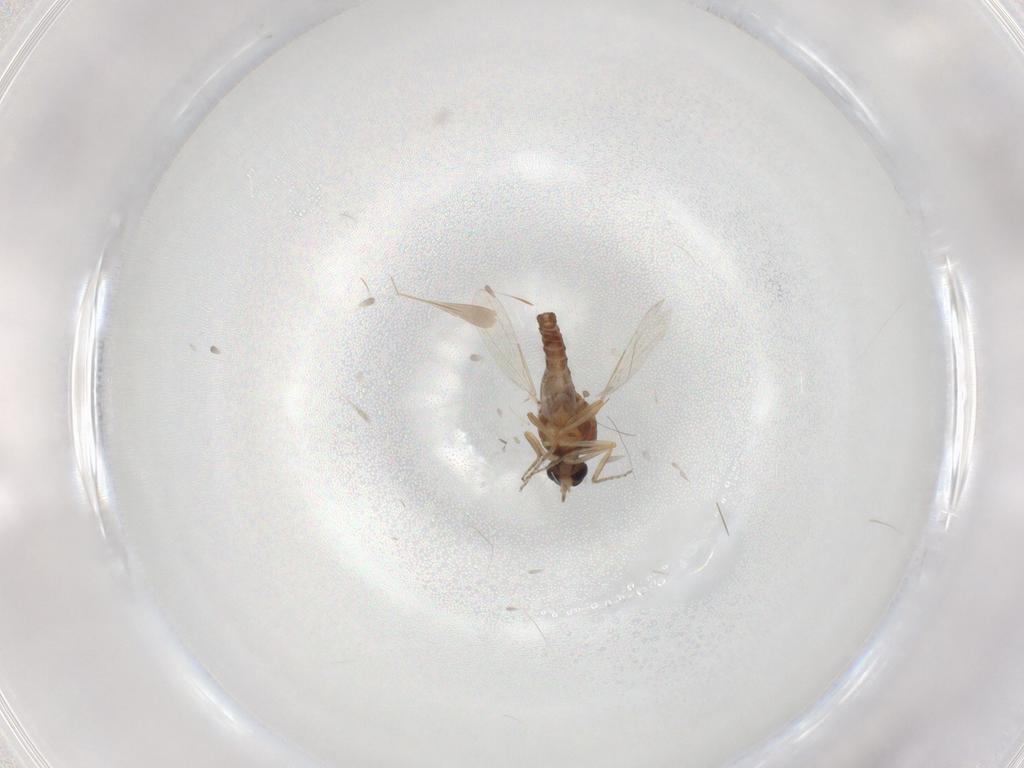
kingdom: Animalia
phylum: Arthropoda
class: Insecta
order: Diptera
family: Ceratopogonidae
